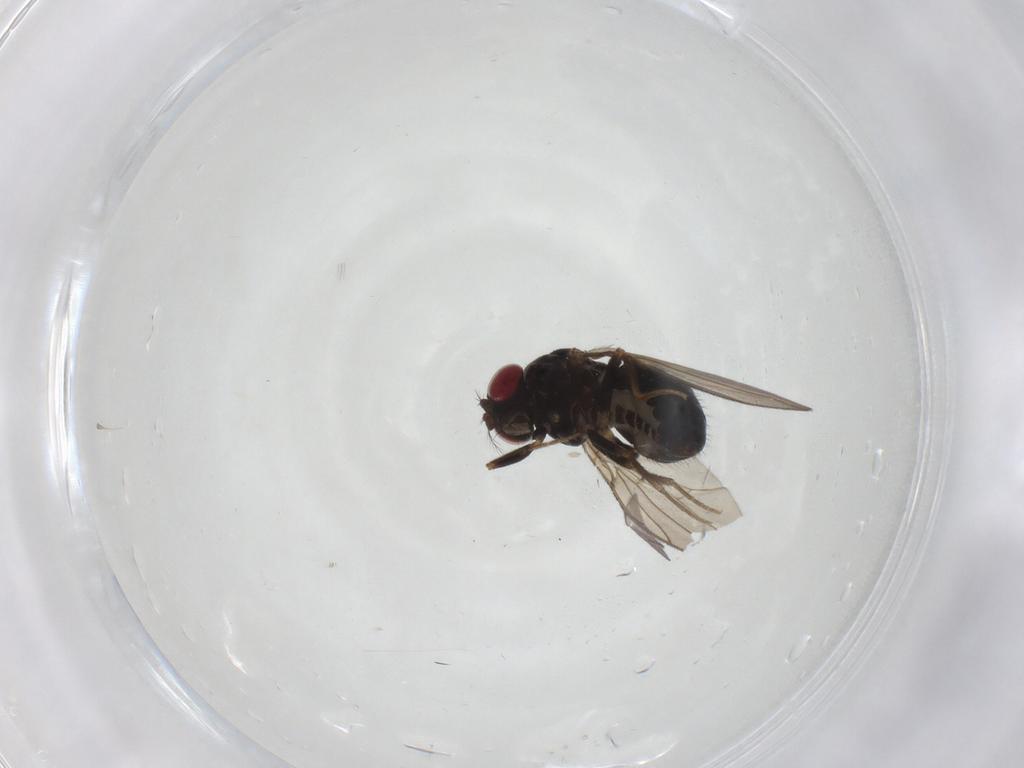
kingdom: Animalia
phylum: Arthropoda
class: Insecta
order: Diptera
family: Drosophilidae
